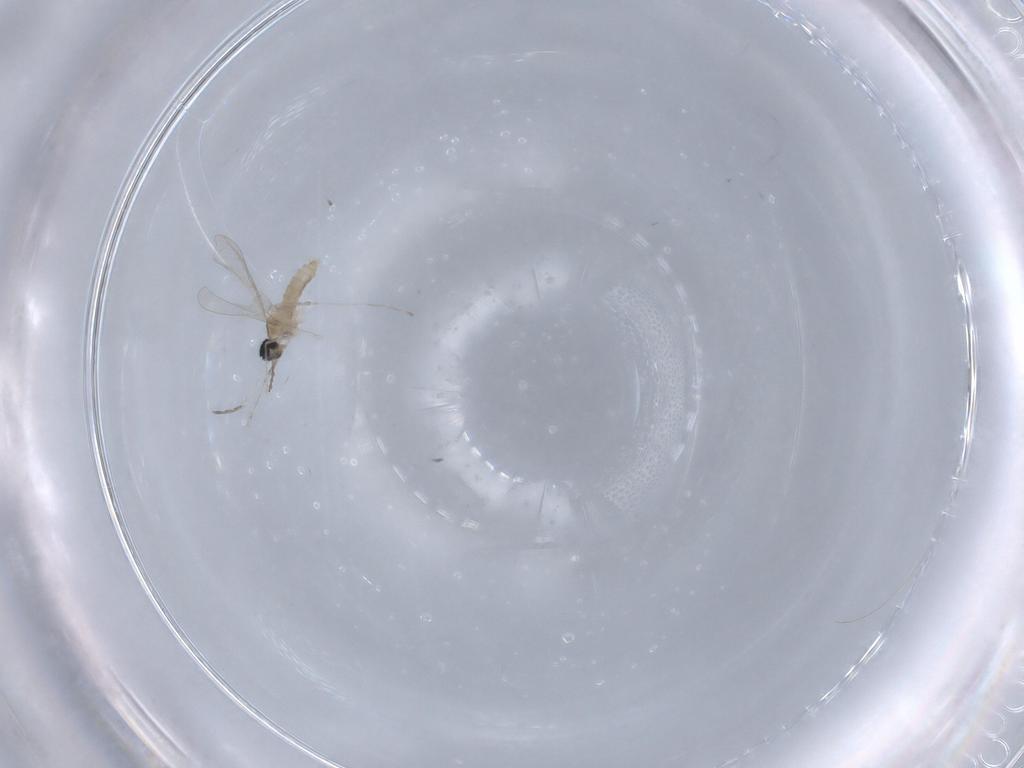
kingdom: Animalia
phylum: Arthropoda
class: Insecta
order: Diptera
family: Cecidomyiidae
